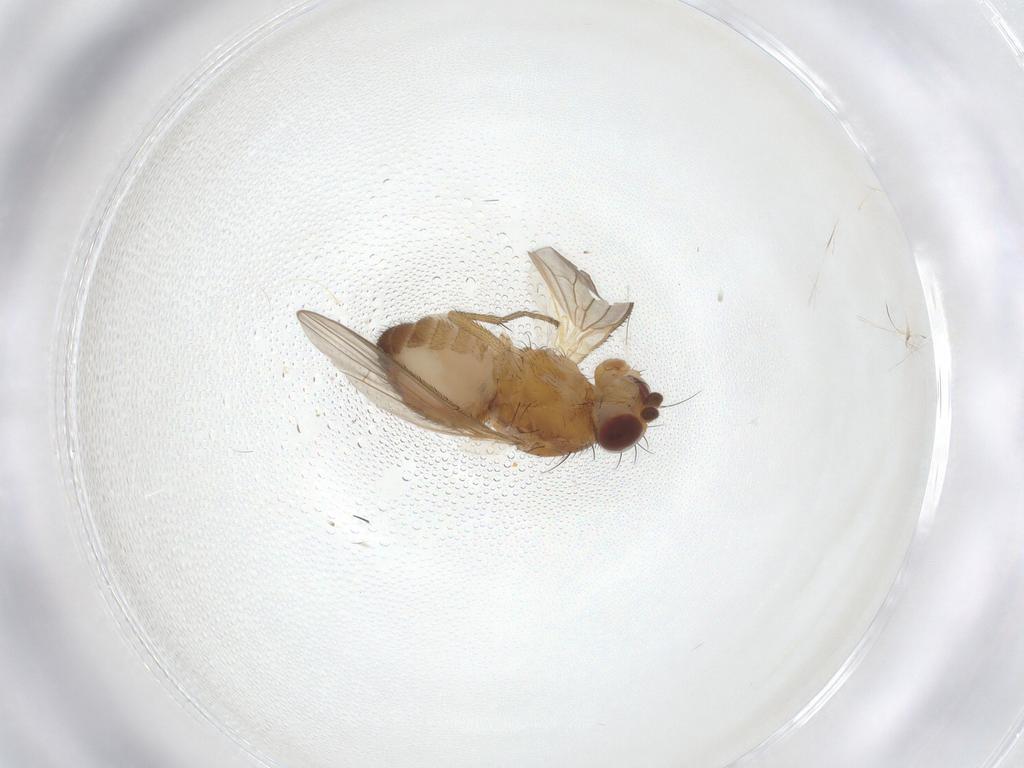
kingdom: Animalia
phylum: Arthropoda
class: Insecta
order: Diptera
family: Heleomyzidae
